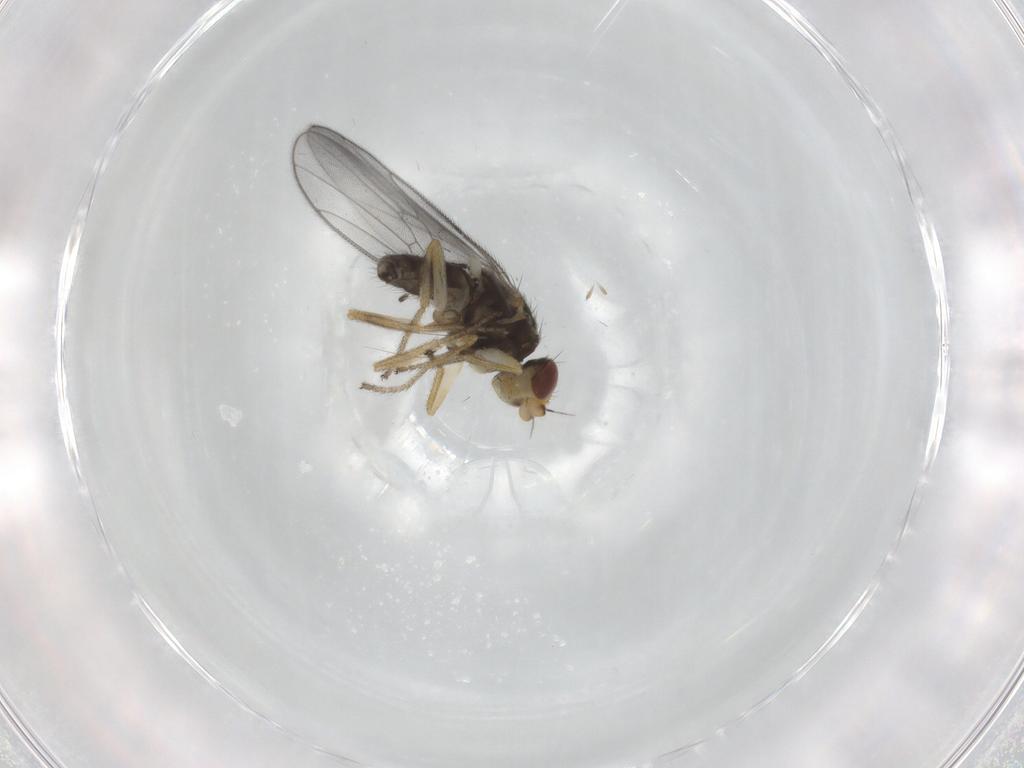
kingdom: Animalia
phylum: Arthropoda
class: Insecta
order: Diptera
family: Chloropidae
